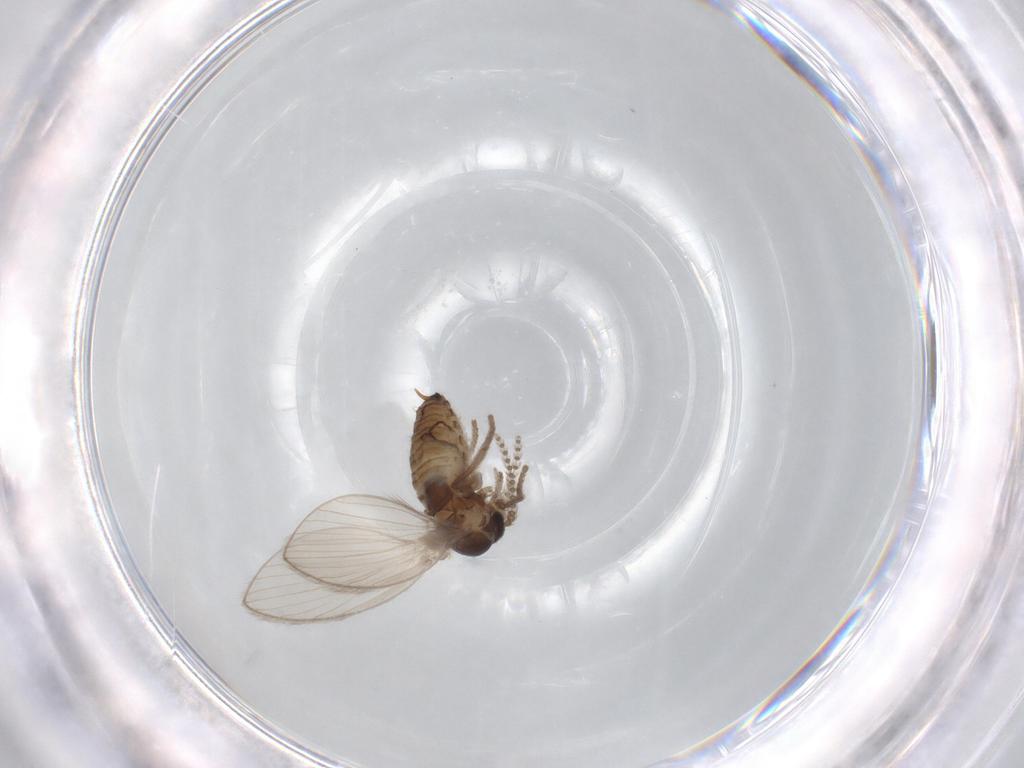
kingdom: Animalia
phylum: Arthropoda
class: Insecta
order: Diptera
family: Psychodidae
